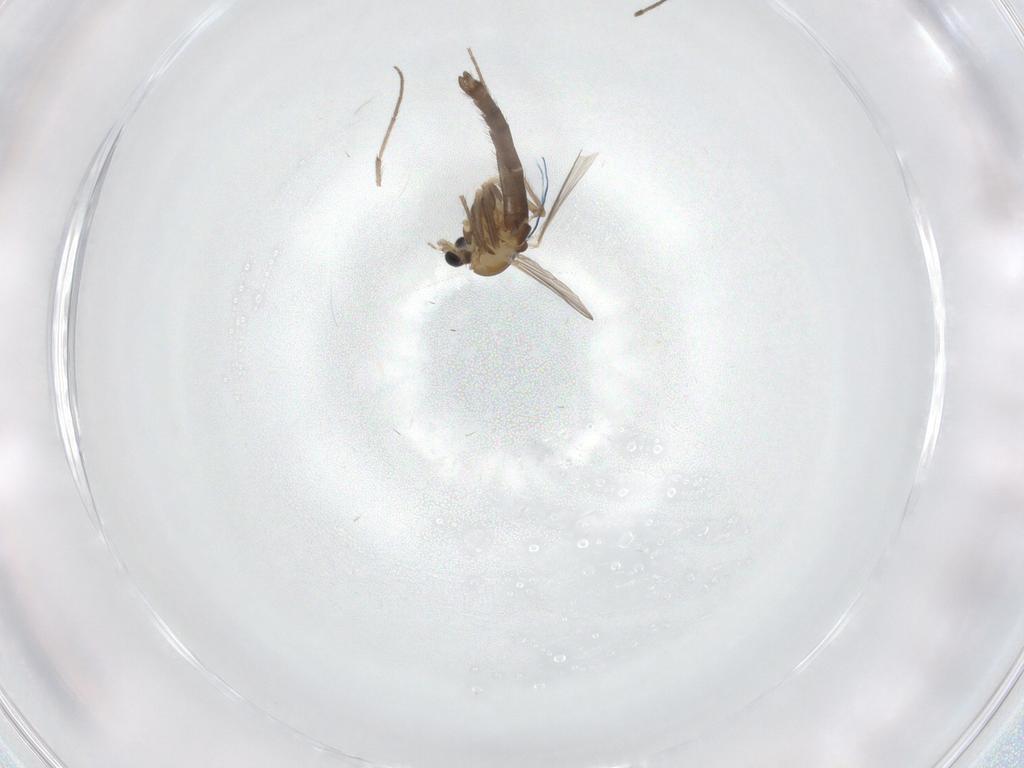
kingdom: Animalia
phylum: Arthropoda
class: Insecta
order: Diptera
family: Chironomidae
